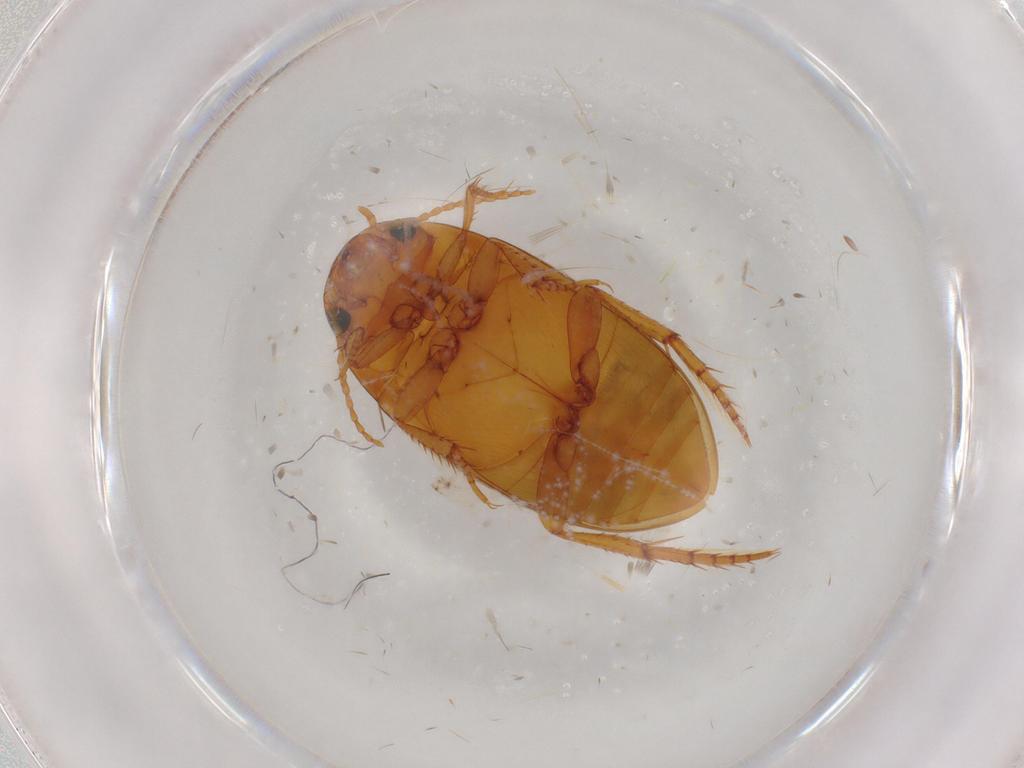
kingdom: Animalia
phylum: Arthropoda
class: Insecta
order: Coleoptera
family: Dytiscidae
